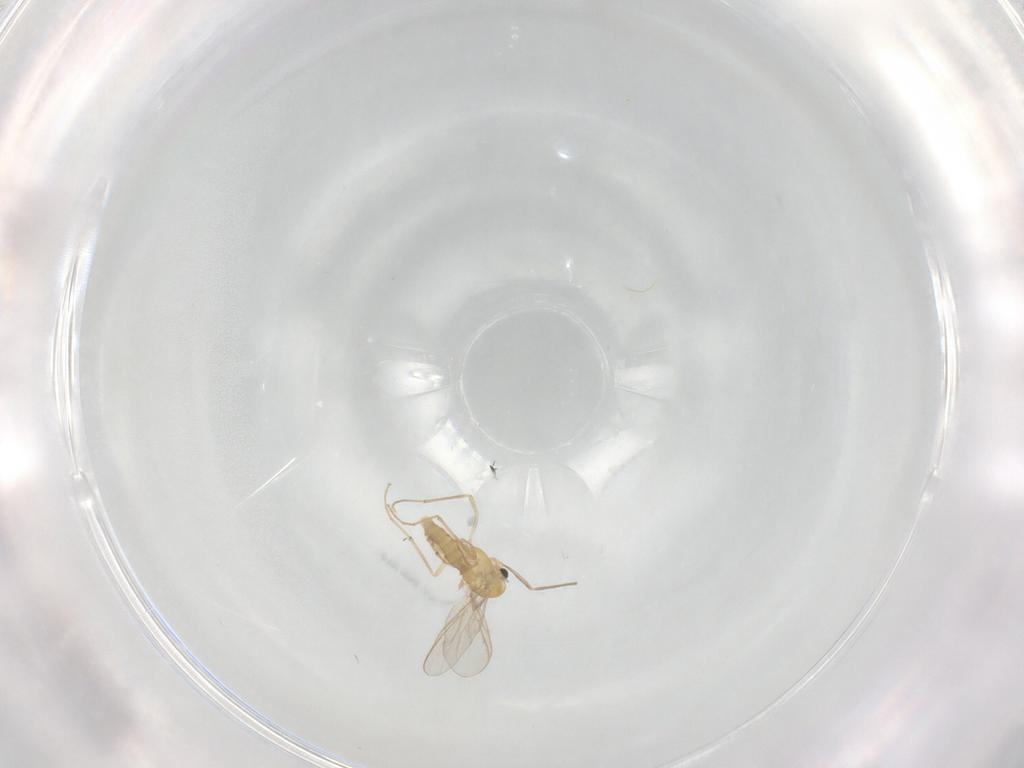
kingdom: Animalia
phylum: Arthropoda
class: Insecta
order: Diptera
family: Chironomidae
